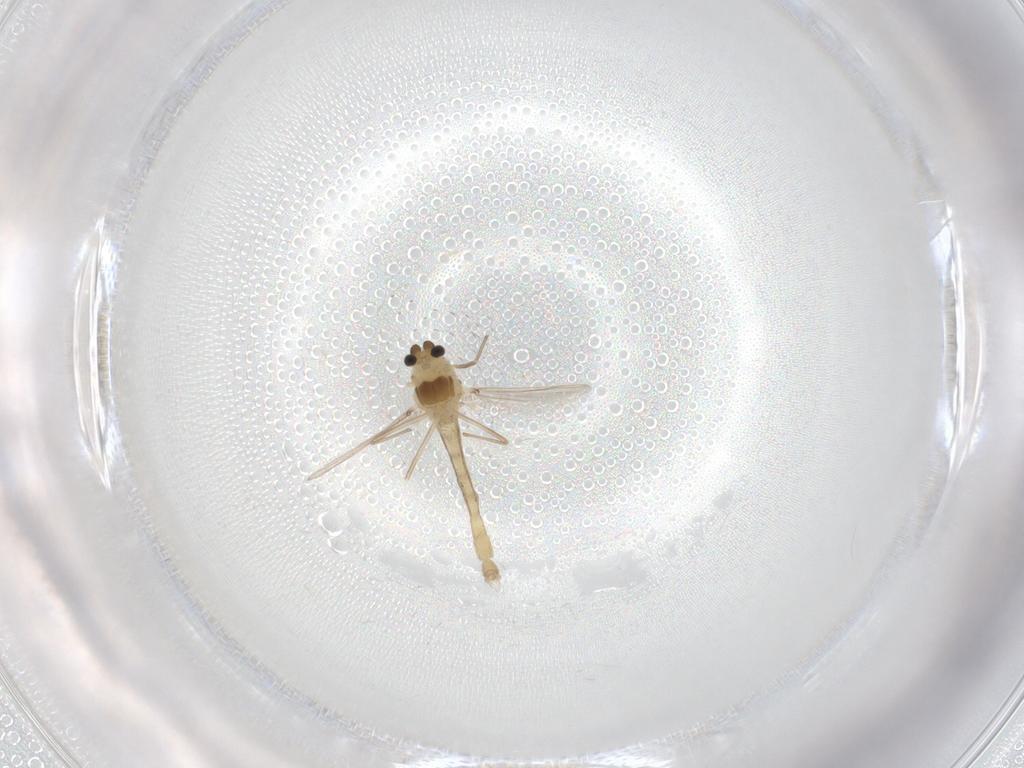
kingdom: Animalia
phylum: Arthropoda
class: Insecta
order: Diptera
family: Chironomidae
